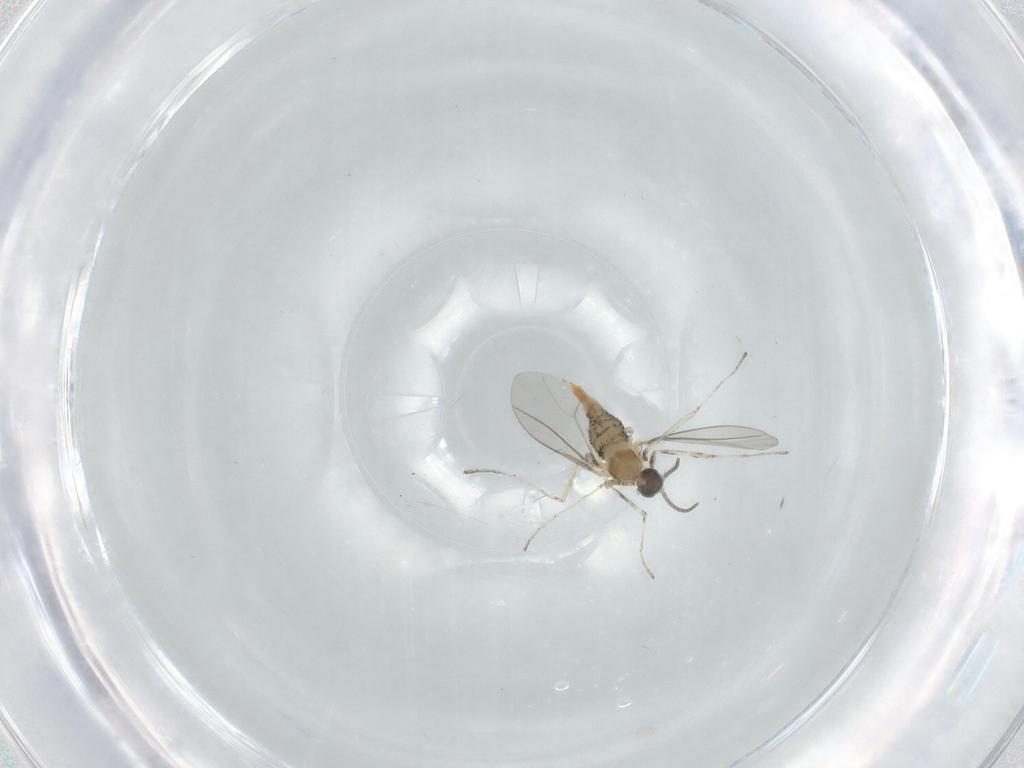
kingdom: Animalia
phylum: Arthropoda
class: Insecta
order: Diptera
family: Cecidomyiidae
